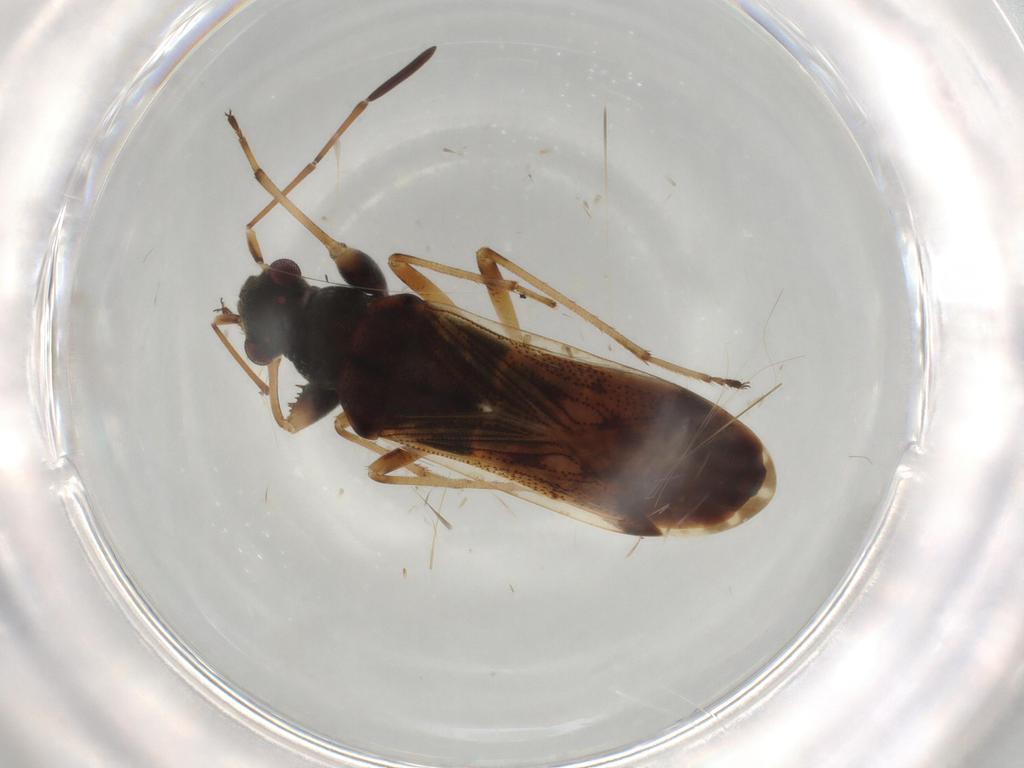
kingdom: Animalia
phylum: Arthropoda
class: Insecta
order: Hemiptera
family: Rhyparochromidae
